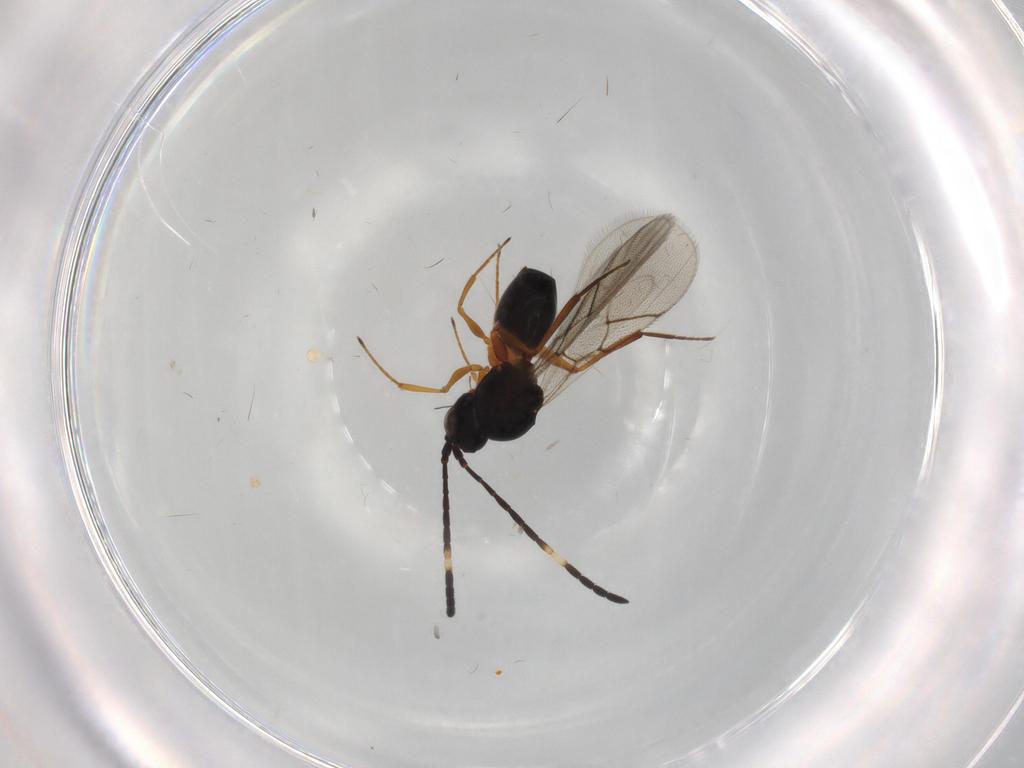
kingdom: Animalia
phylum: Arthropoda
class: Insecta
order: Hymenoptera
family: Figitidae
